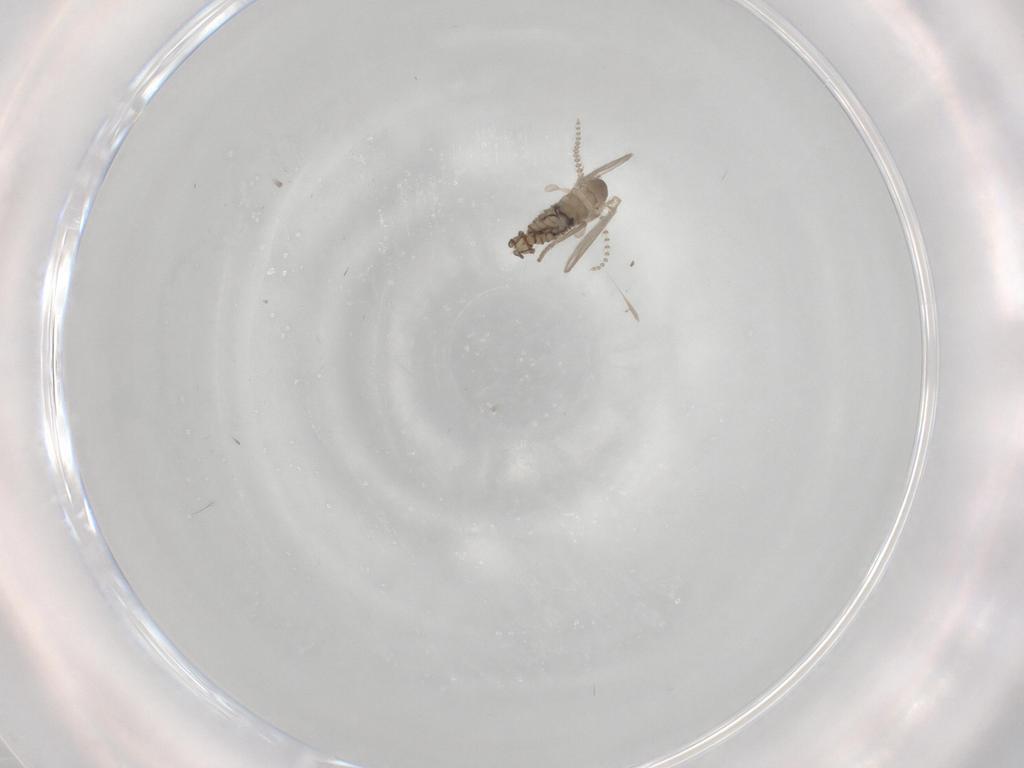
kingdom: Animalia
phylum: Arthropoda
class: Insecta
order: Diptera
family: Psychodidae
